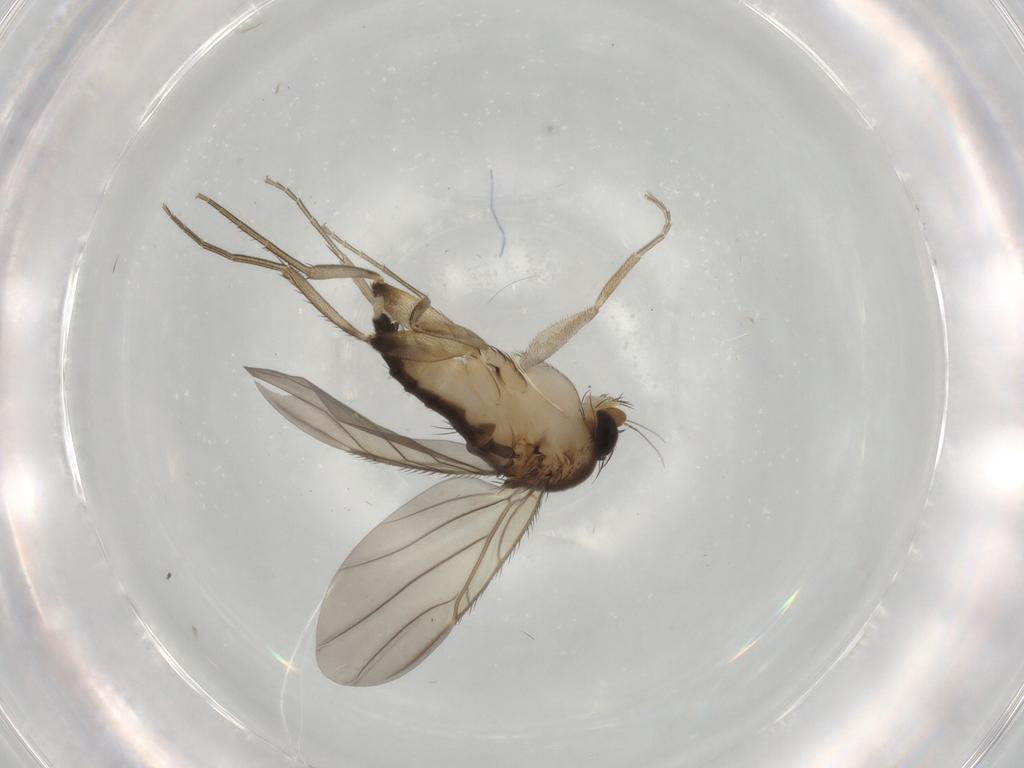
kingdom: Animalia
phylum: Arthropoda
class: Insecta
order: Diptera
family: Phoridae
